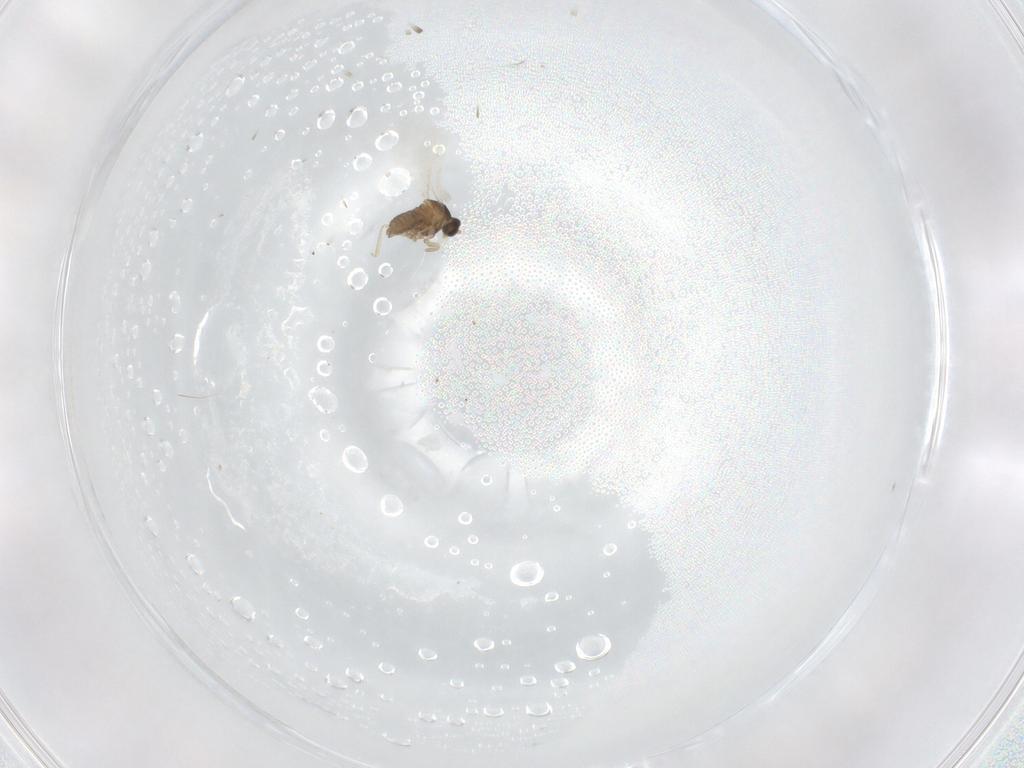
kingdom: Animalia
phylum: Arthropoda
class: Insecta
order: Diptera
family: Cecidomyiidae
